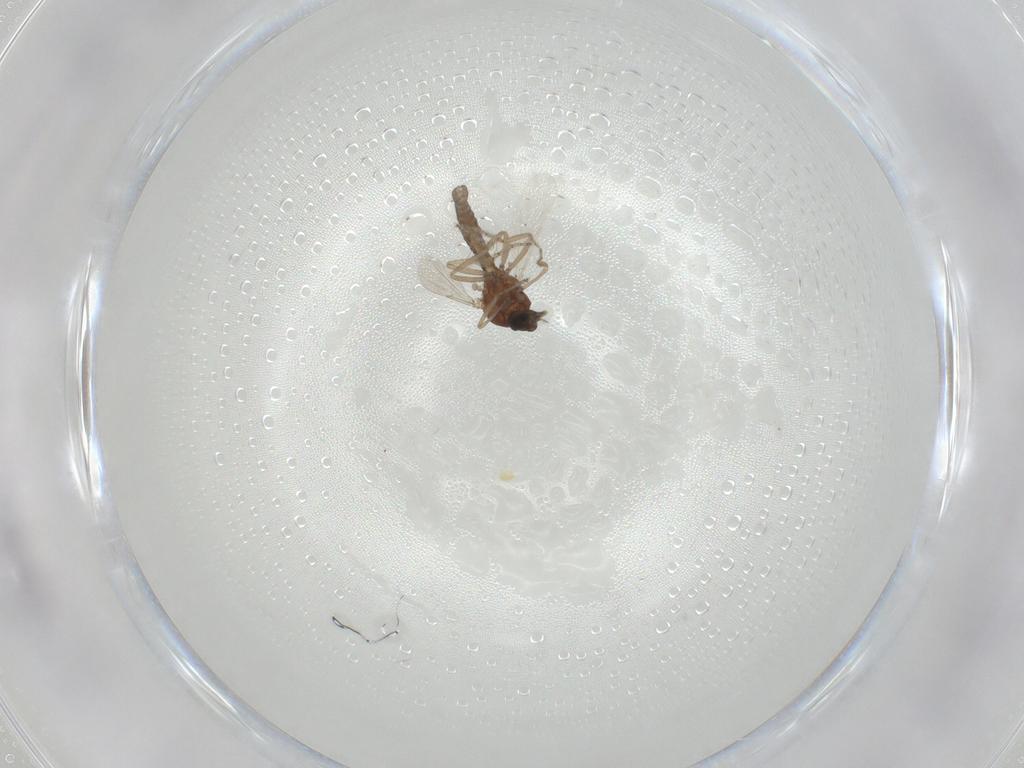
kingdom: Animalia
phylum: Arthropoda
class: Insecta
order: Diptera
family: Ceratopogonidae
